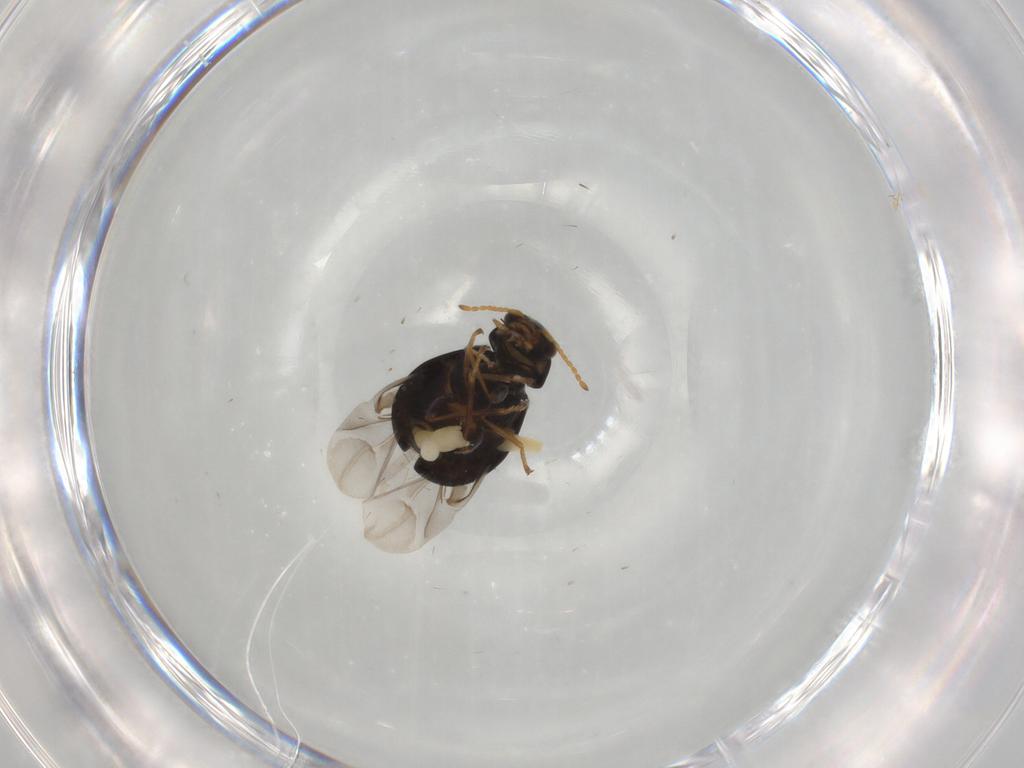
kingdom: Animalia
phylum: Arthropoda
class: Insecta
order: Coleoptera
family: Melyridae
